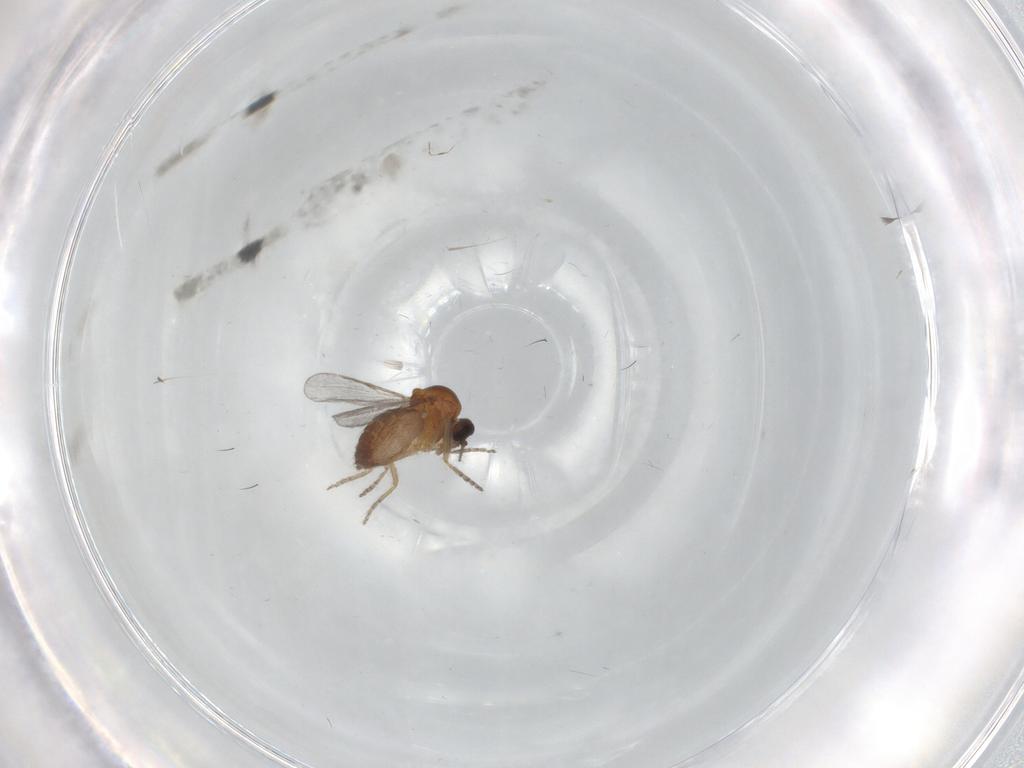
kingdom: Animalia
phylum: Arthropoda
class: Insecta
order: Diptera
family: Ceratopogonidae
